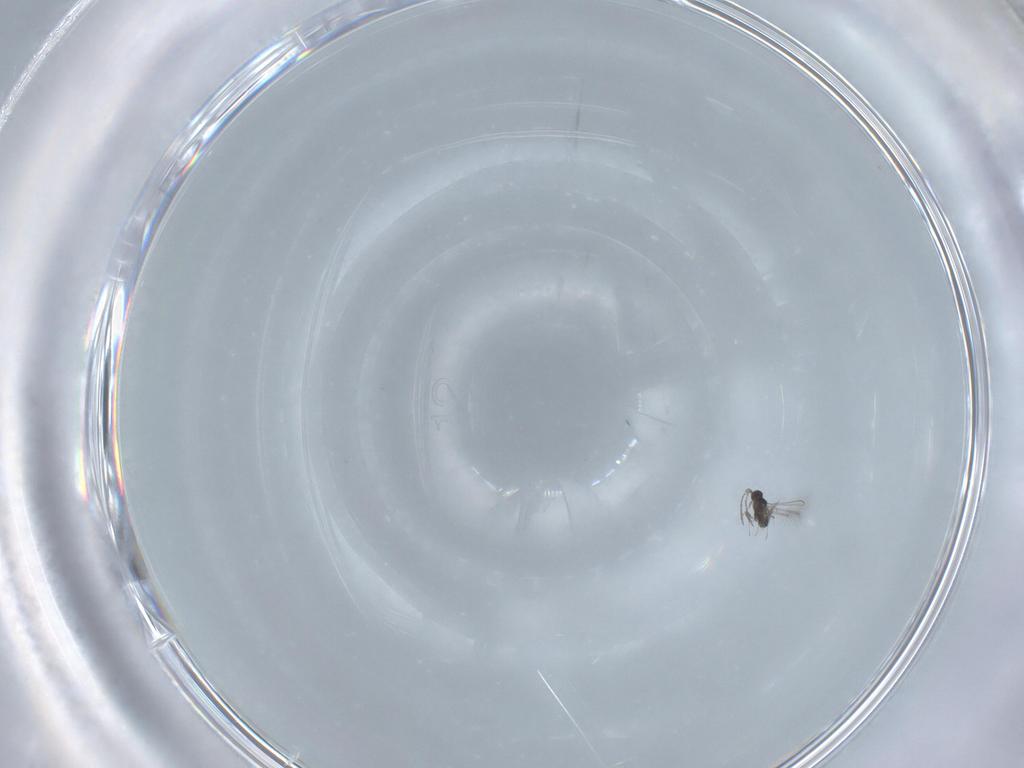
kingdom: Animalia
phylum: Arthropoda
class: Insecta
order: Hymenoptera
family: Mymaridae
